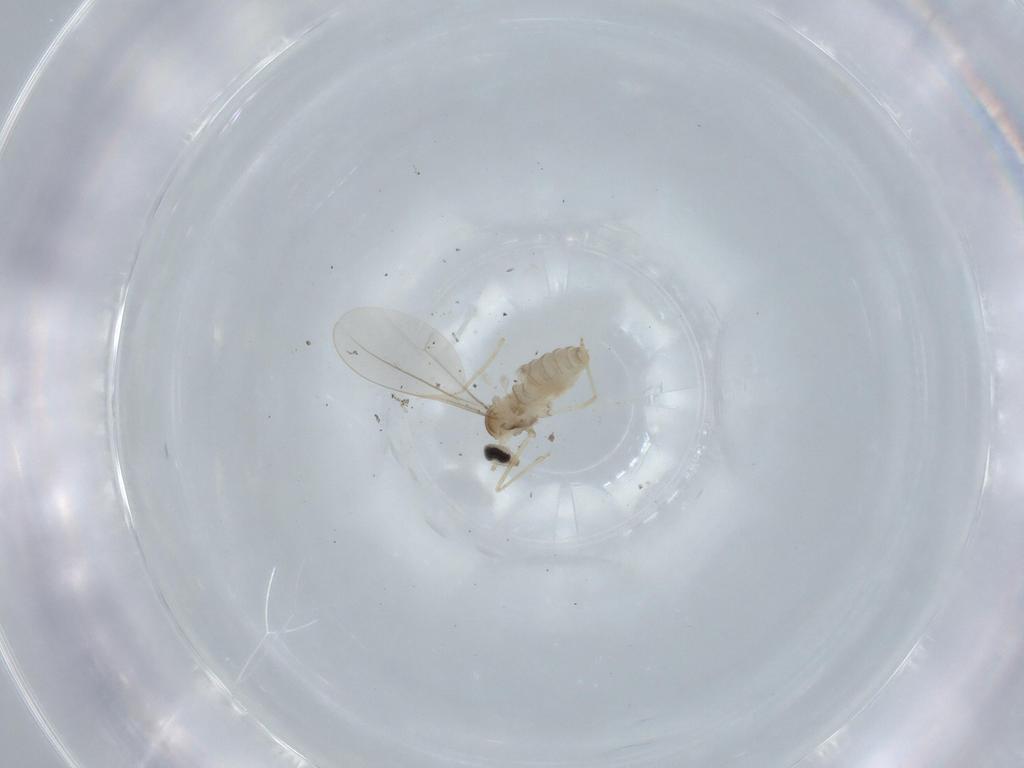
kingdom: Animalia
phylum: Arthropoda
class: Insecta
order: Diptera
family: Cecidomyiidae
